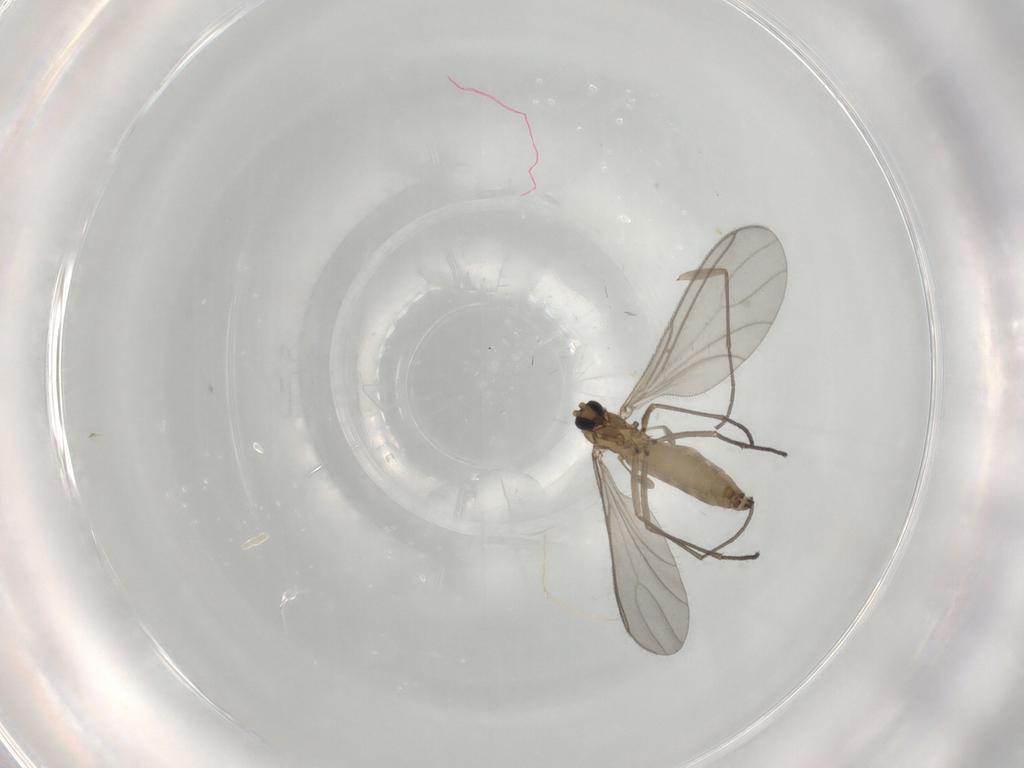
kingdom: Animalia
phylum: Arthropoda
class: Insecta
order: Diptera
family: Sciaridae
